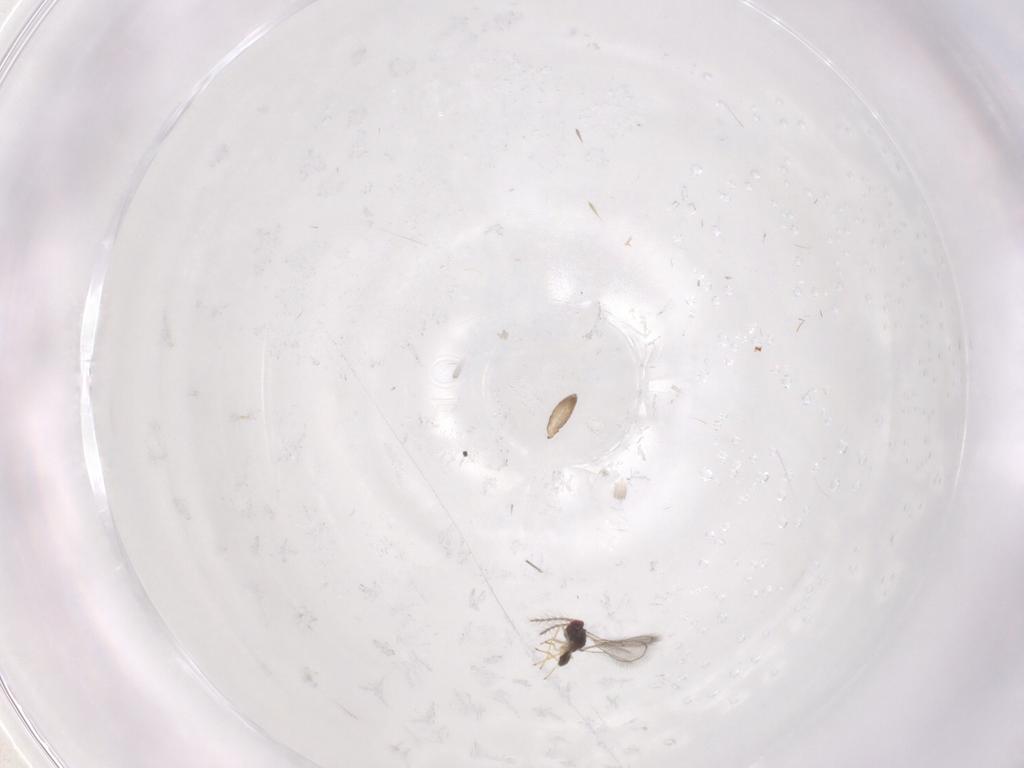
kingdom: Animalia
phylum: Arthropoda
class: Insecta
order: Hymenoptera
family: Eulophidae
